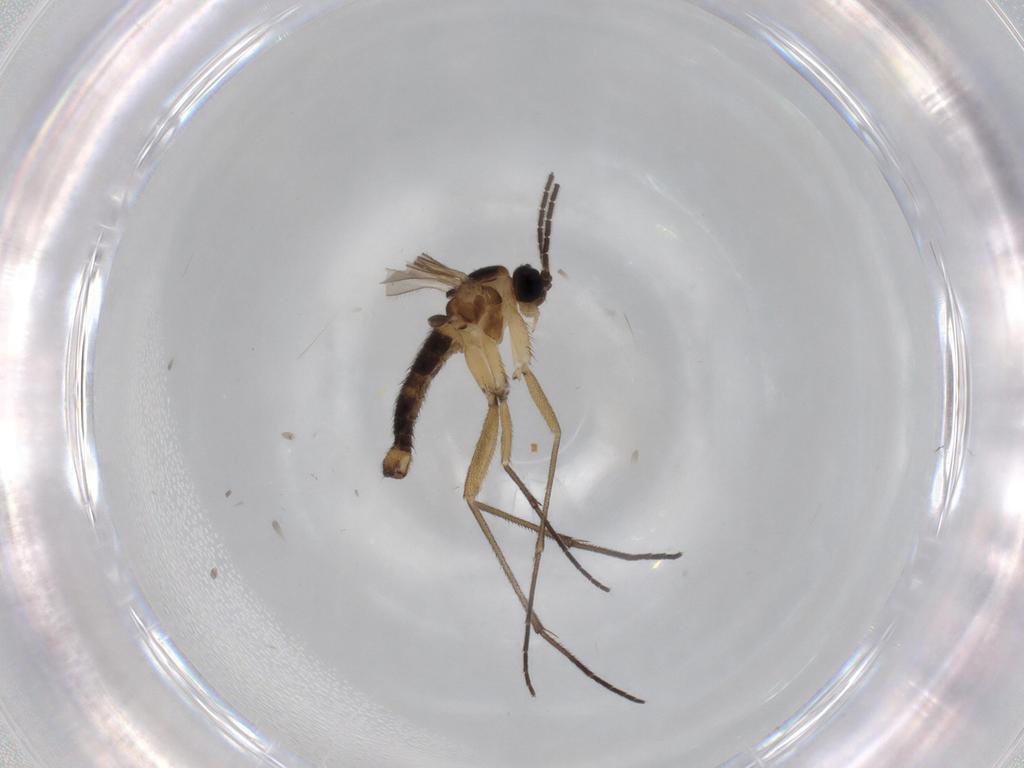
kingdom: Animalia
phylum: Arthropoda
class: Insecta
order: Diptera
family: Sciaridae
